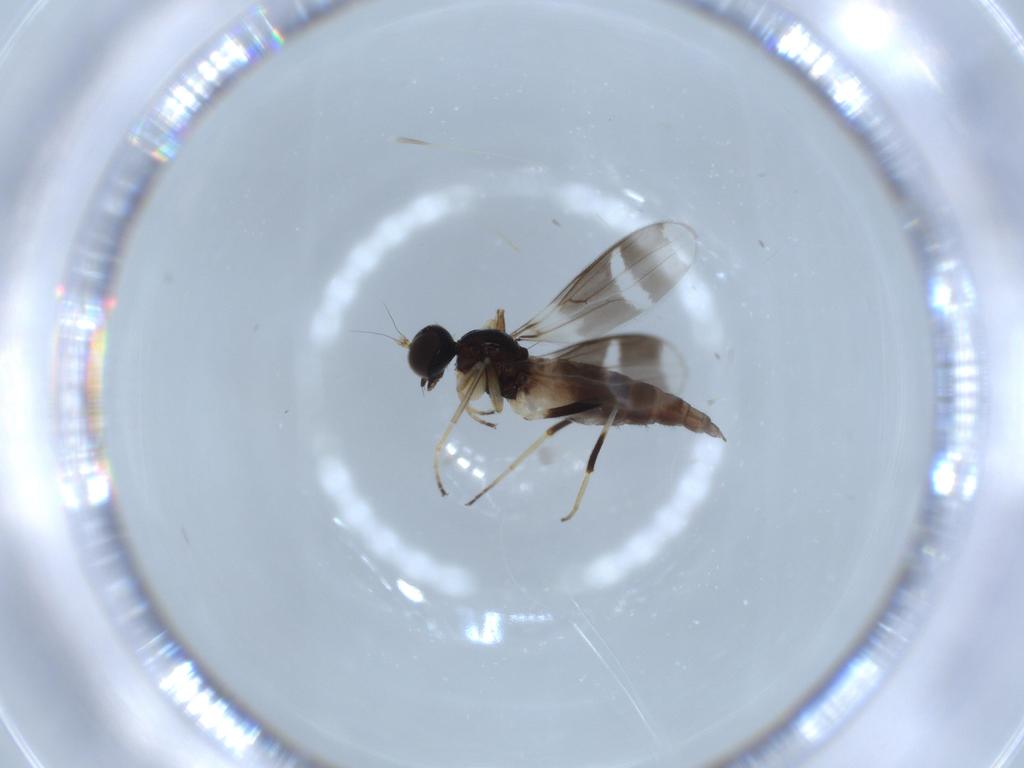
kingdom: Animalia
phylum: Arthropoda
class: Insecta
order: Diptera
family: Hybotidae
